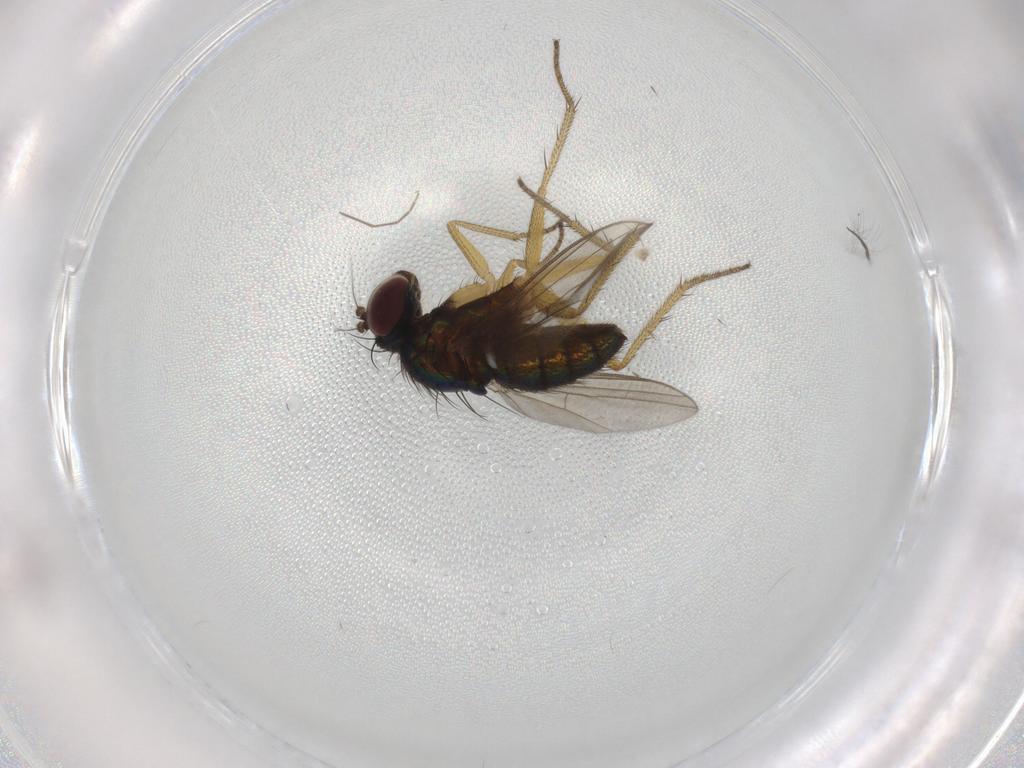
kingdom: Animalia
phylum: Arthropoda
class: Insecta
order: Diptera
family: Chironomidae
